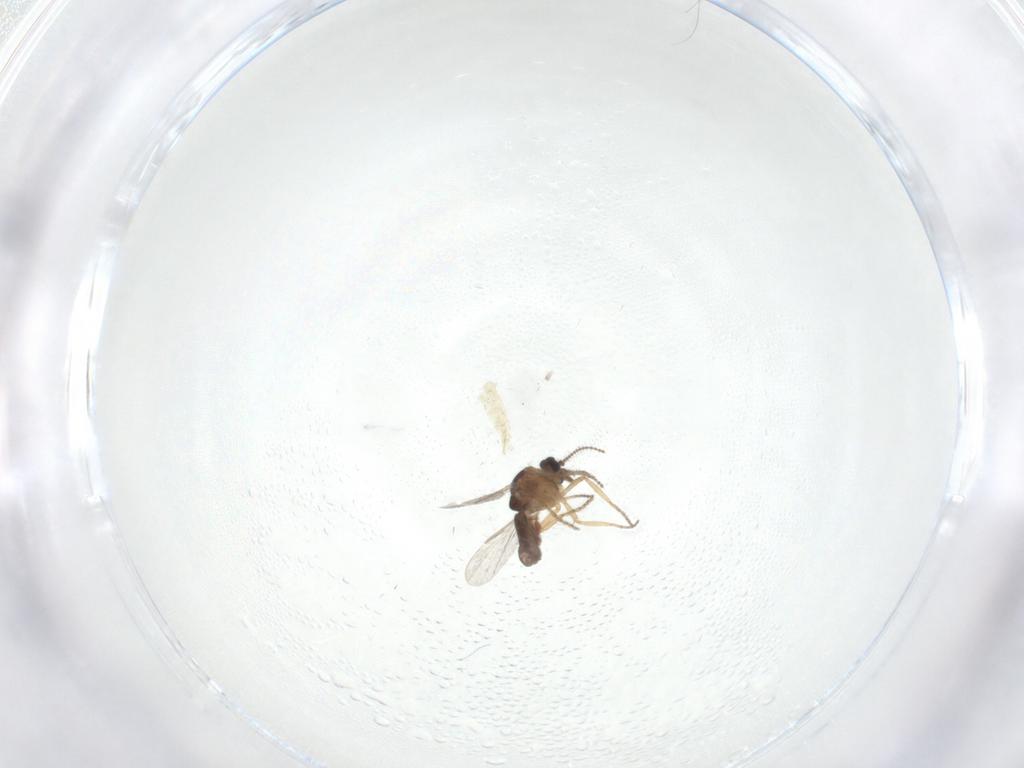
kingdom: Animalia
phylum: Arthropoda
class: Insecta
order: Diptera
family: Ceratopogonidae
